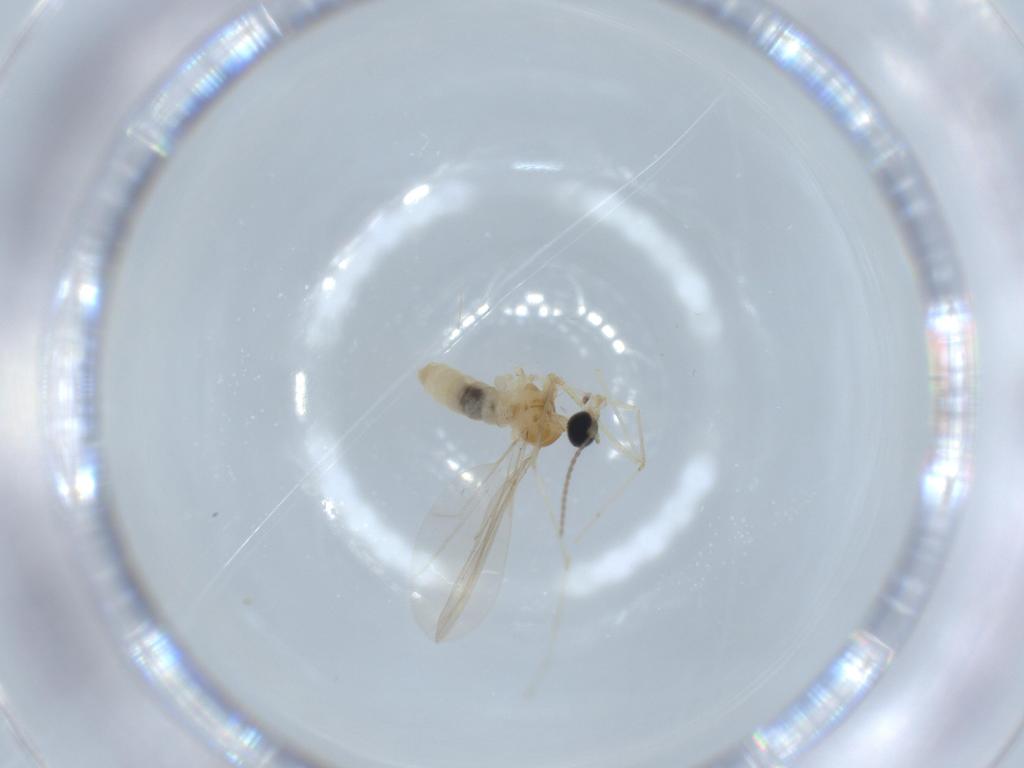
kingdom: Animalia
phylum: Arthropoda
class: Insecta
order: Diptera
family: Cecidomyiidae
